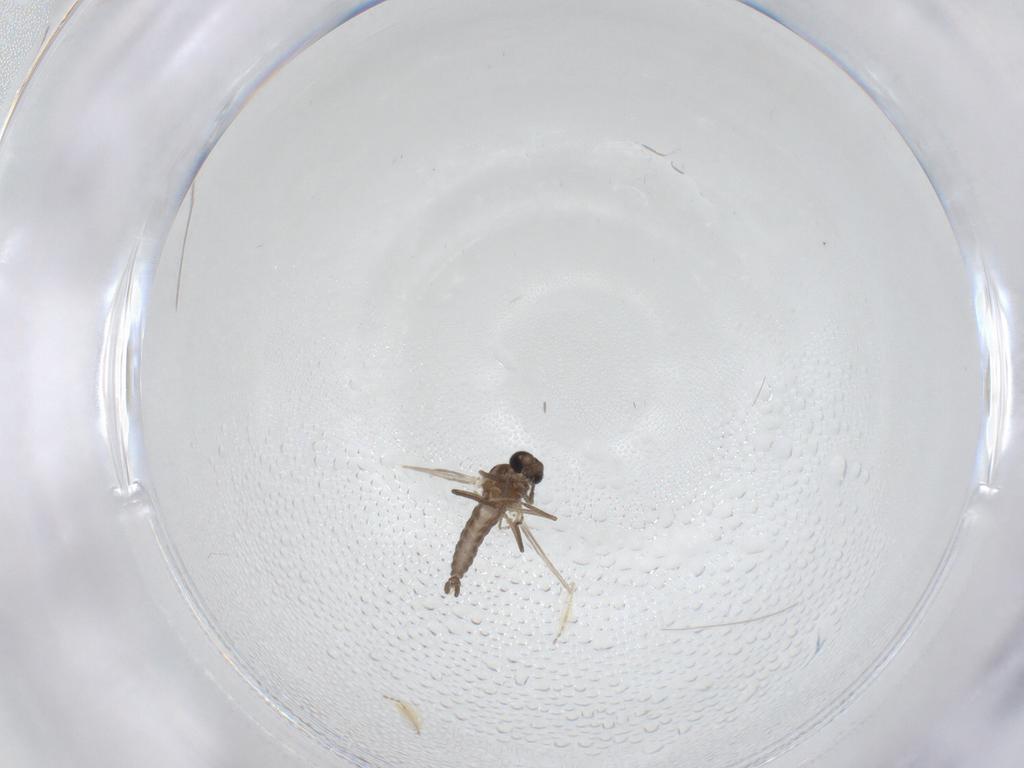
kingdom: Animalia
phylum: Arthropoda
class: Insecta
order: Diptera
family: Ceratopogonidae
